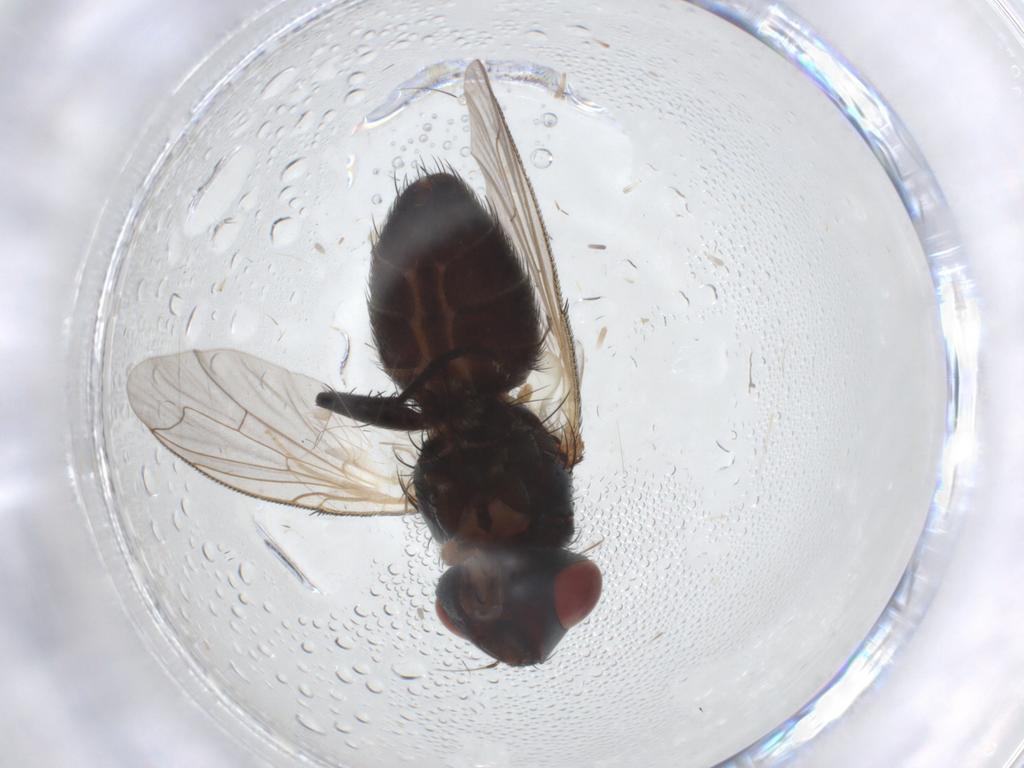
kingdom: Animalia
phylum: Arthropoda
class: Insecta
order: Diptera
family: Sarcophagidae
